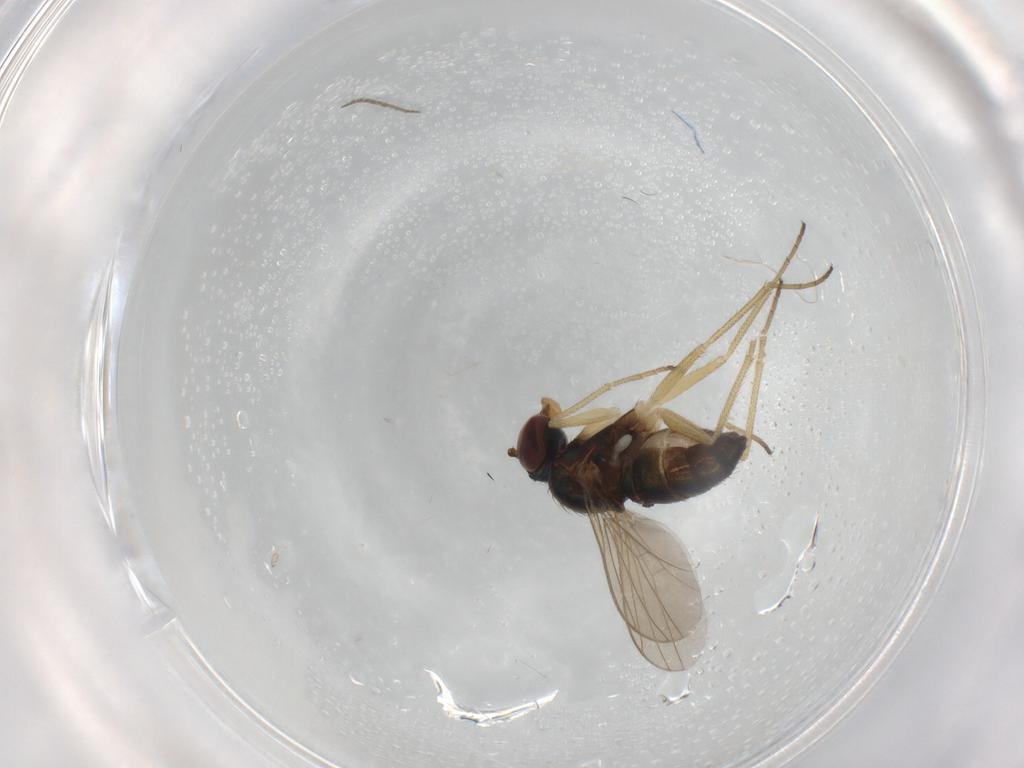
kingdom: Animalia
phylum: Arthropoda
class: Insecta
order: Diptera
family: Dolichopodidae
